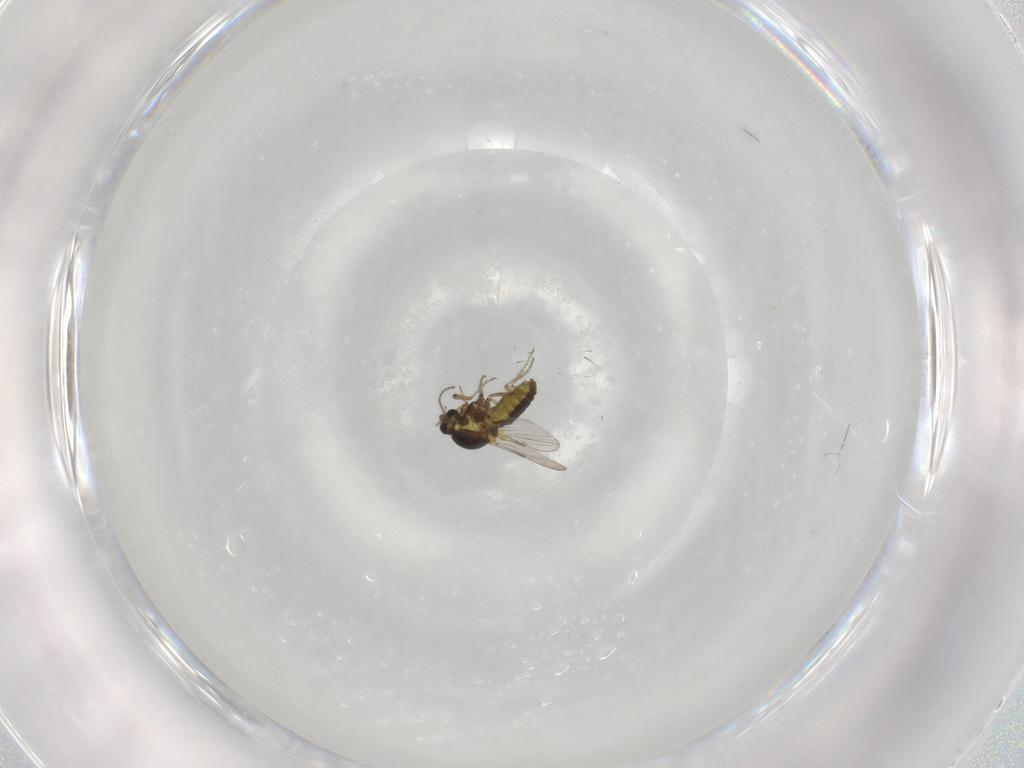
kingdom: Animalia
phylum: Arthropoda
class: Insecta
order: Diptera
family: Ceratopogonidae
